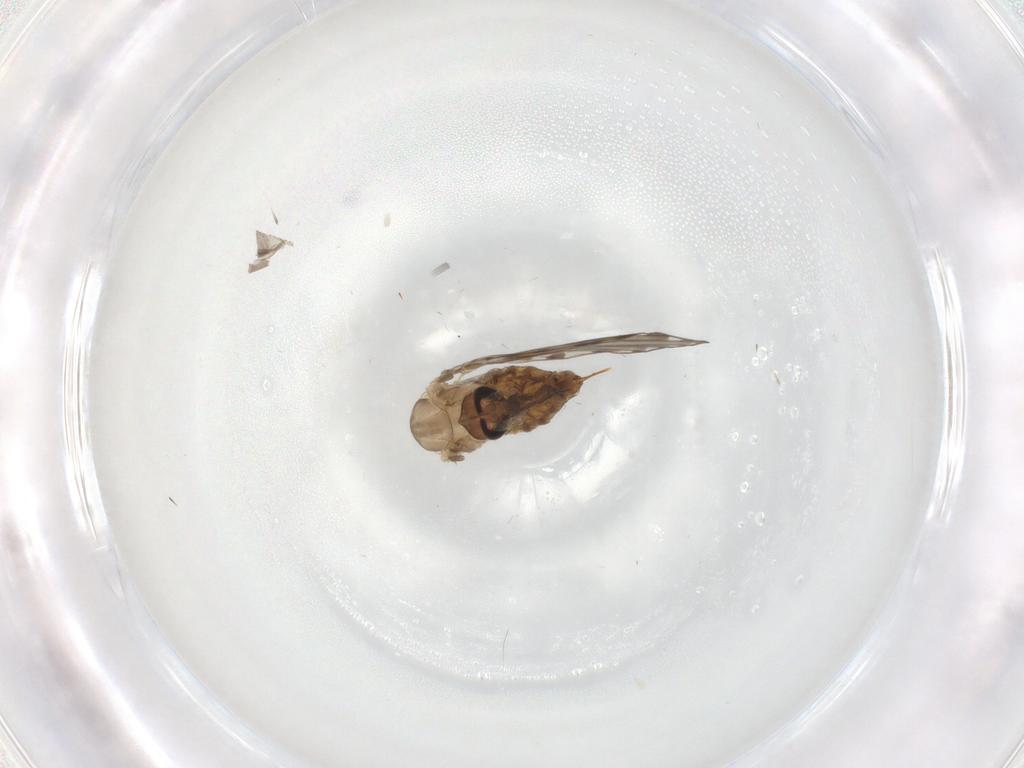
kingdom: Animalia
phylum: Arthropoda
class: Insecta
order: Diptera
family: Psychodidae
